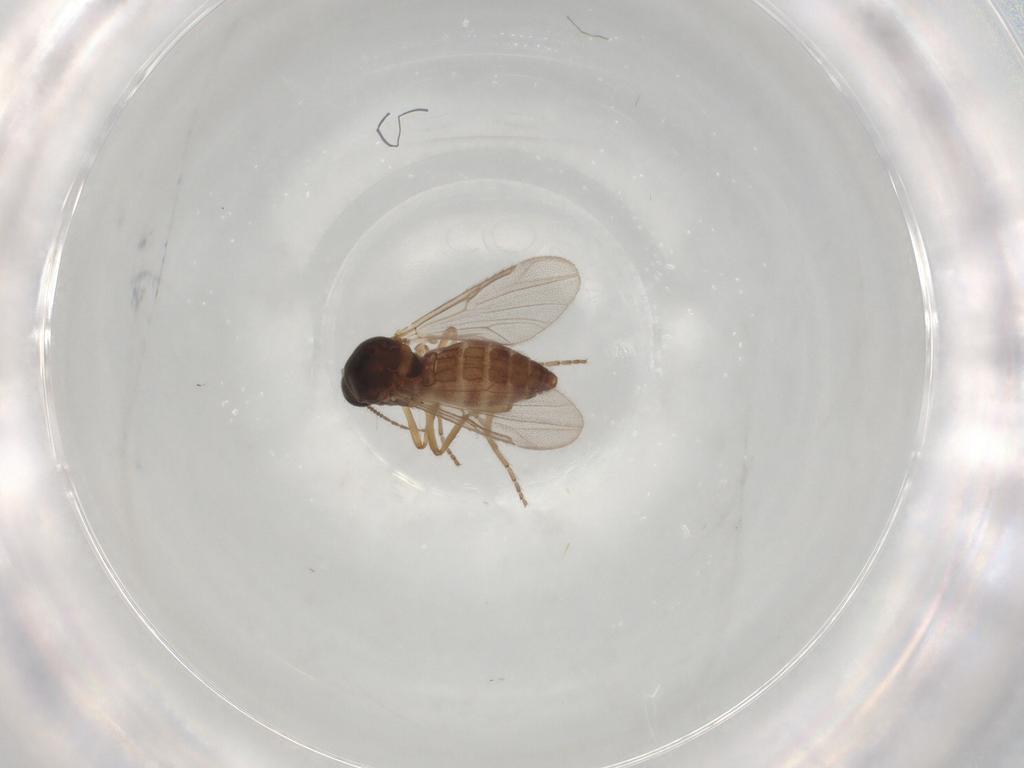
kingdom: Animalia
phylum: Arthropoda
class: Insecta
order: Diptera
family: Ceratopogonidae
